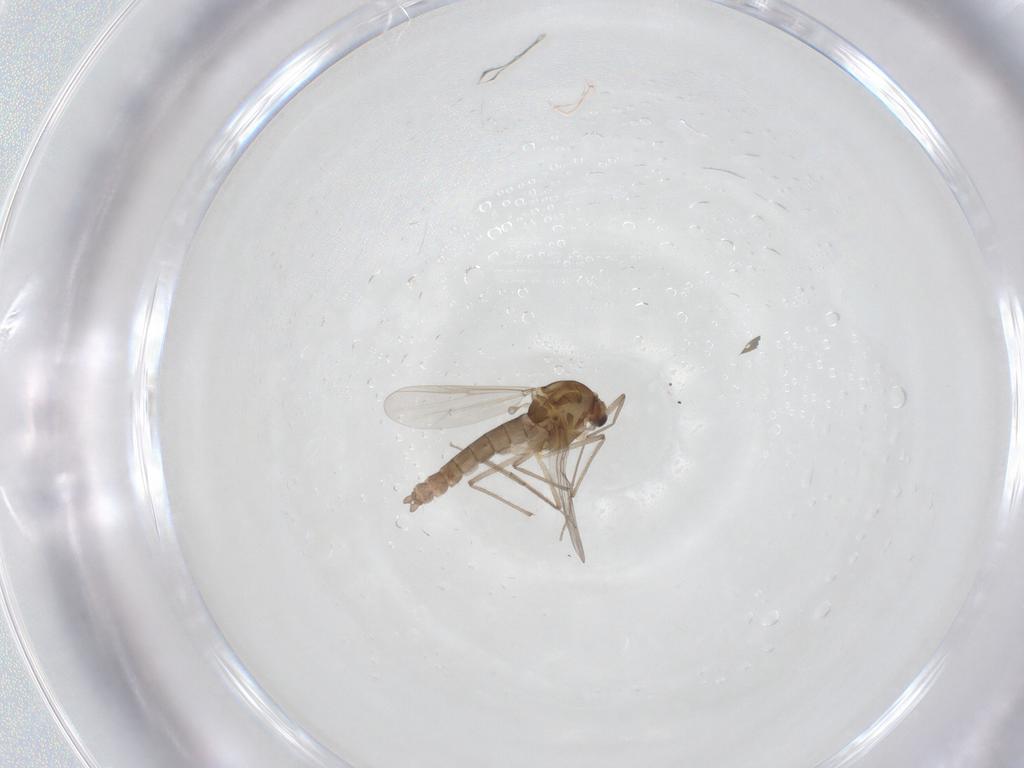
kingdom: Animalia
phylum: Arthropoda
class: Insecta
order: Diptera
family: Chironomidae
